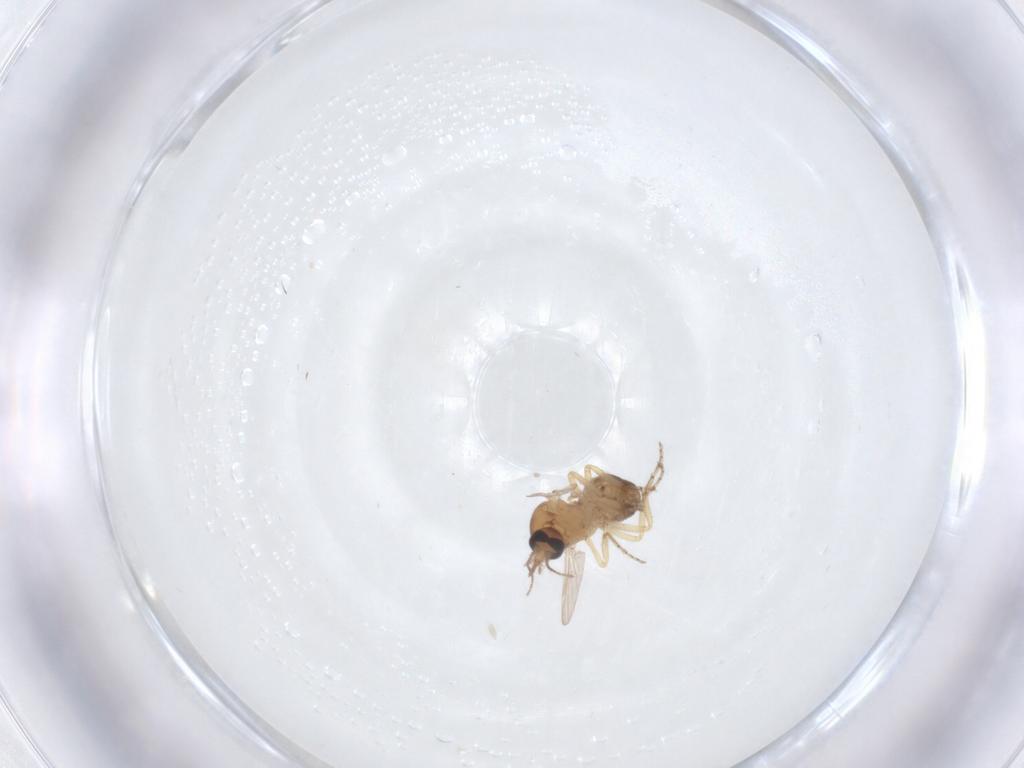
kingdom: Animalia
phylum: Arthropoda
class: Insecta
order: Diptera
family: Ceratopogonidae
